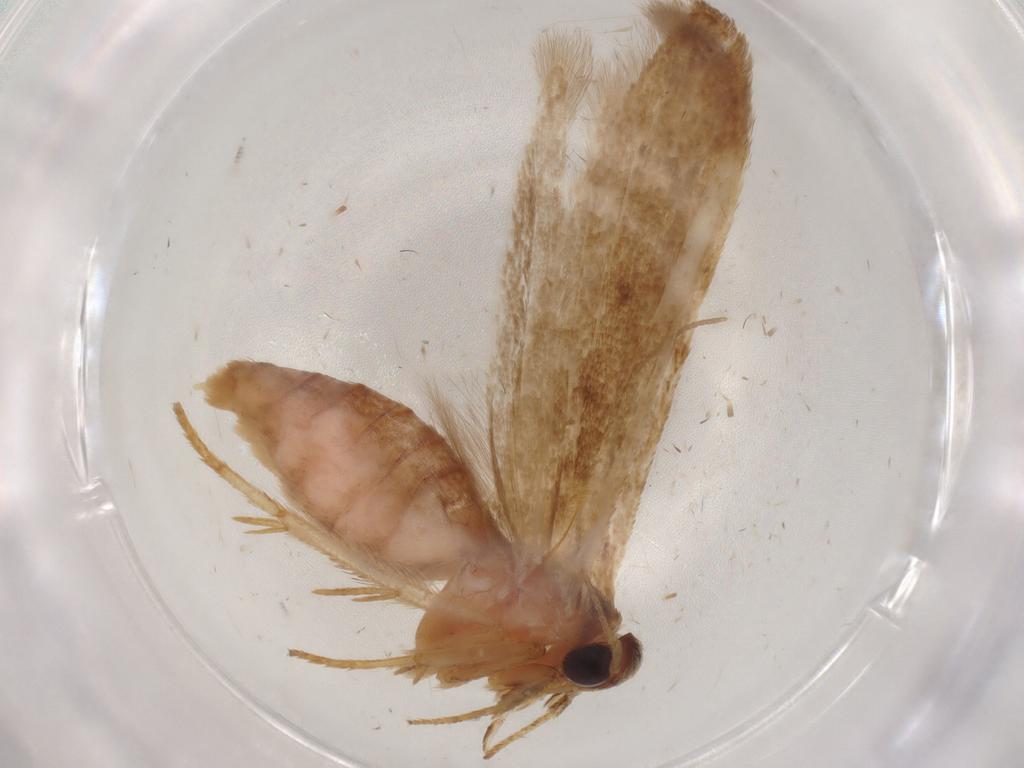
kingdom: Animalia
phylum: Arthropoda
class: Insecta
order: Lepidoptera
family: Blastobasidae
